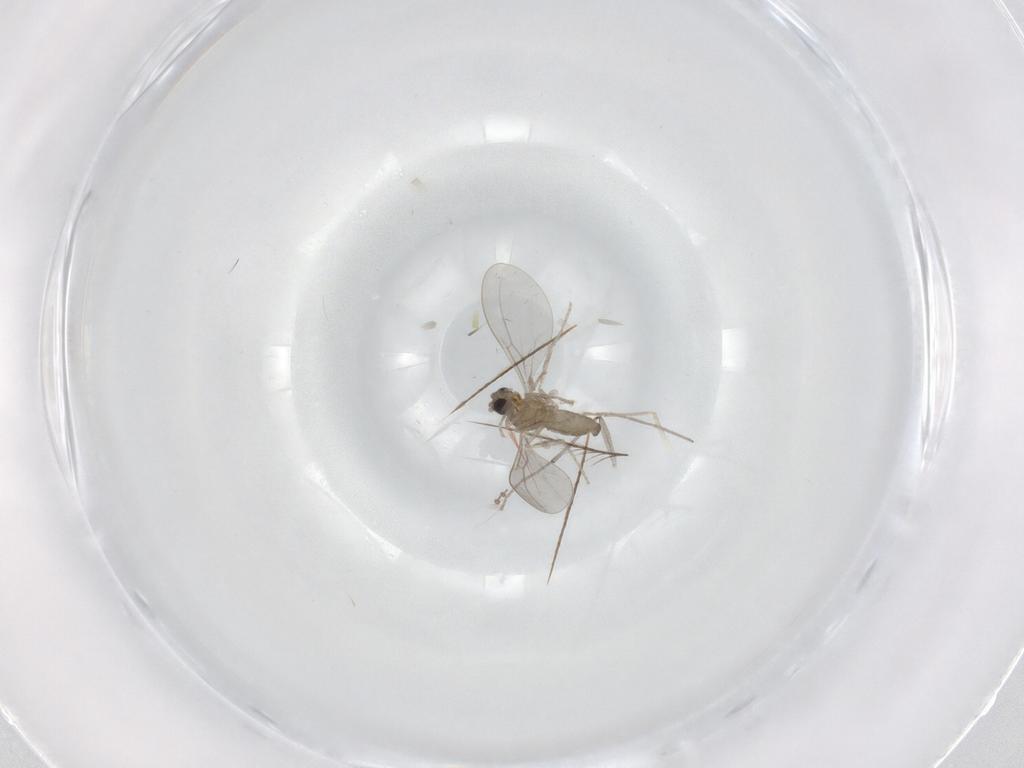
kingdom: Animalia
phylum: Arthropoda
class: Insecta
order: Diptera
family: Cecidomyiidae
